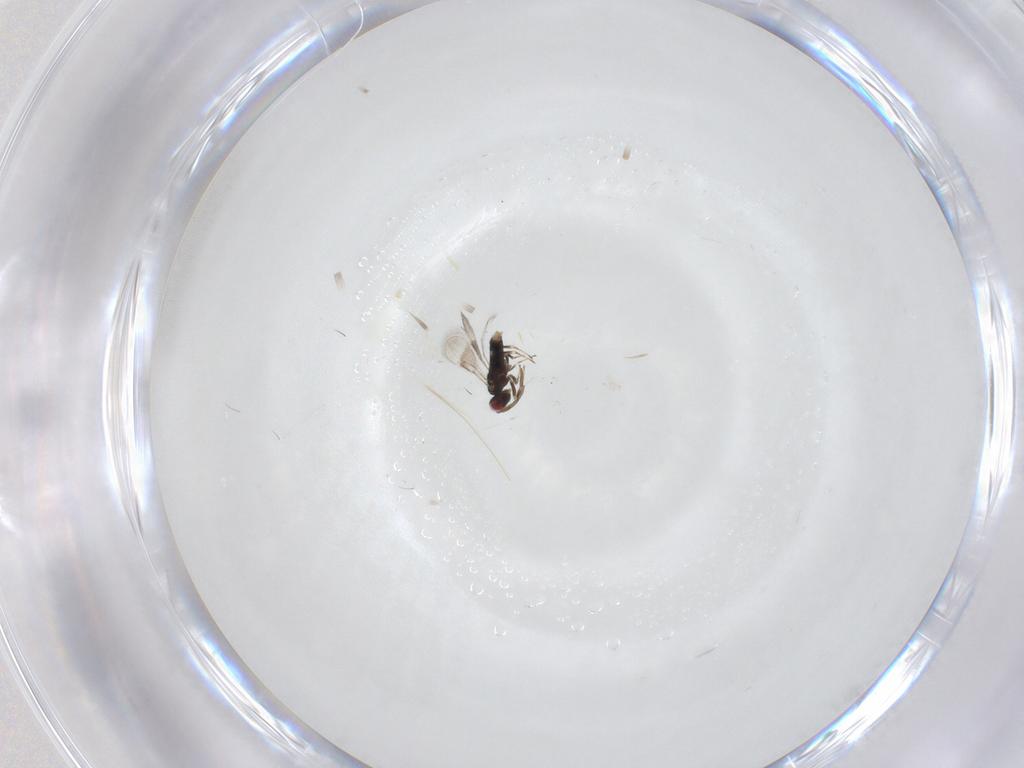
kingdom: Animalia
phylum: Arthropoda
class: Insecta
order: Hymenoptera
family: Azotidae
